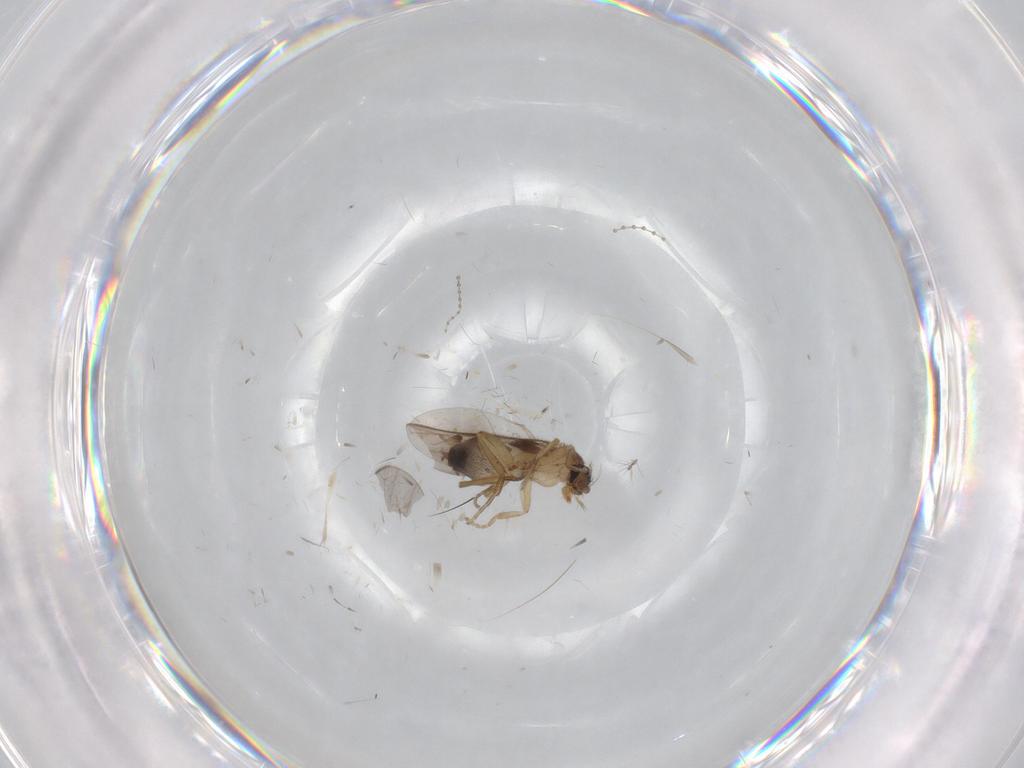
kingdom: Animalia
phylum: Arthropoda
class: Insecta
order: Diptera
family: Cecidomyiidae
